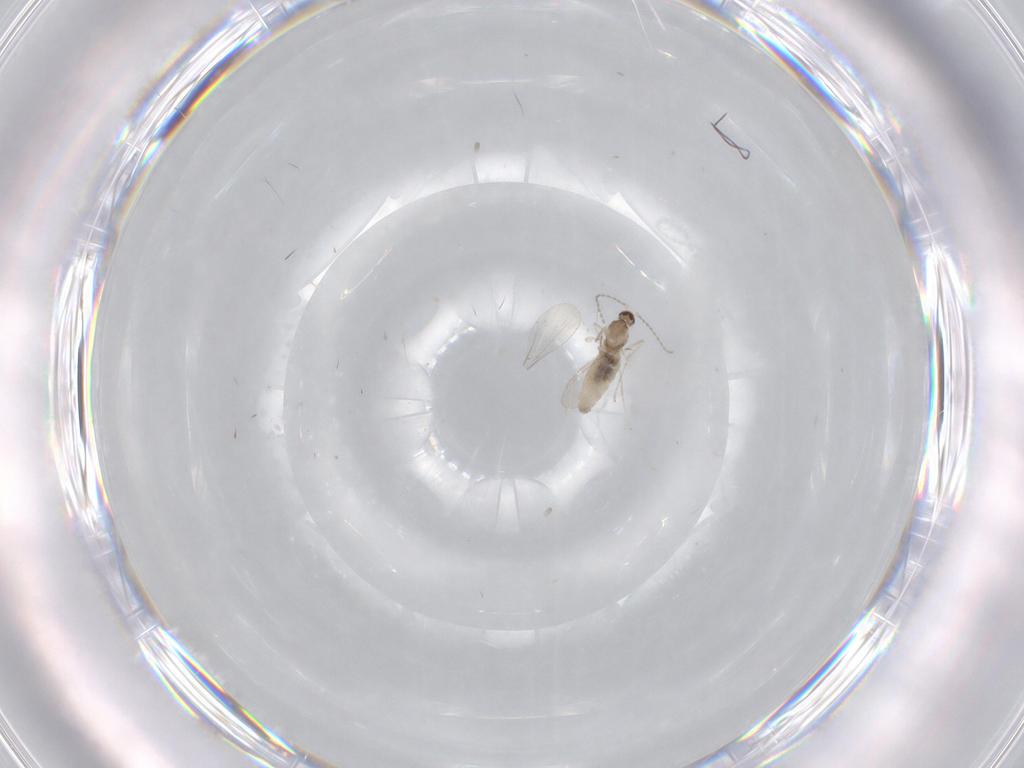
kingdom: Animalia
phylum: Arthropoda
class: Insecta
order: Diptera
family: Cecidomyiidae
